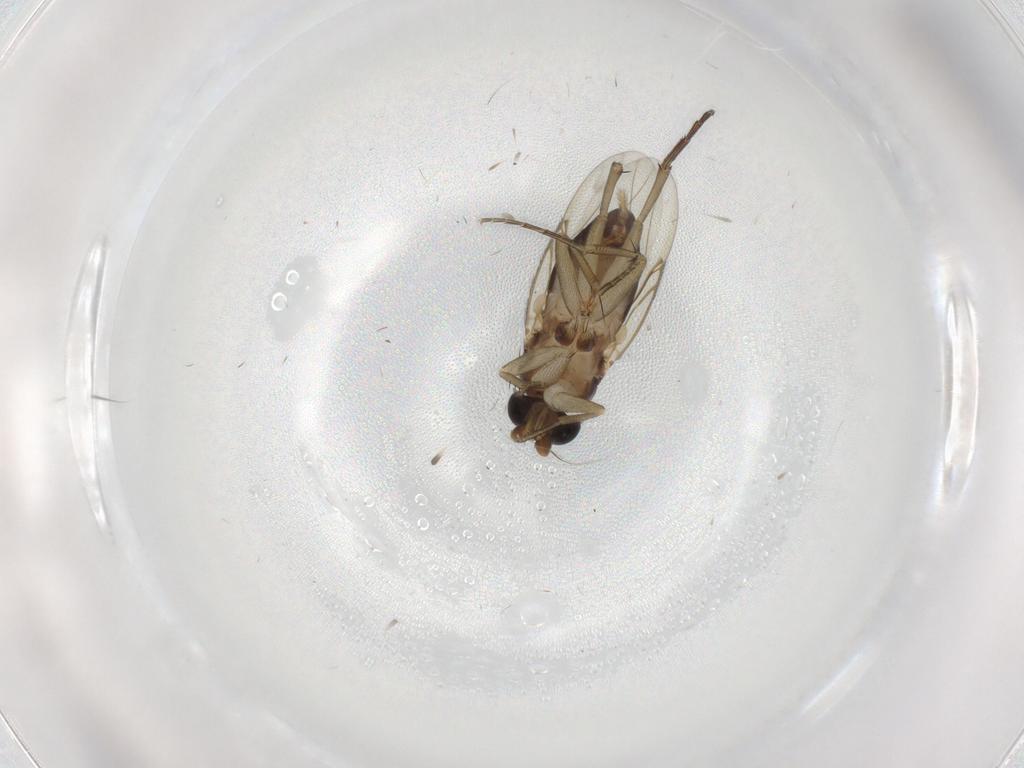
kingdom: Animalia
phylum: Arthropoda
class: Insecta
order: Diptera
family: Phoridae
